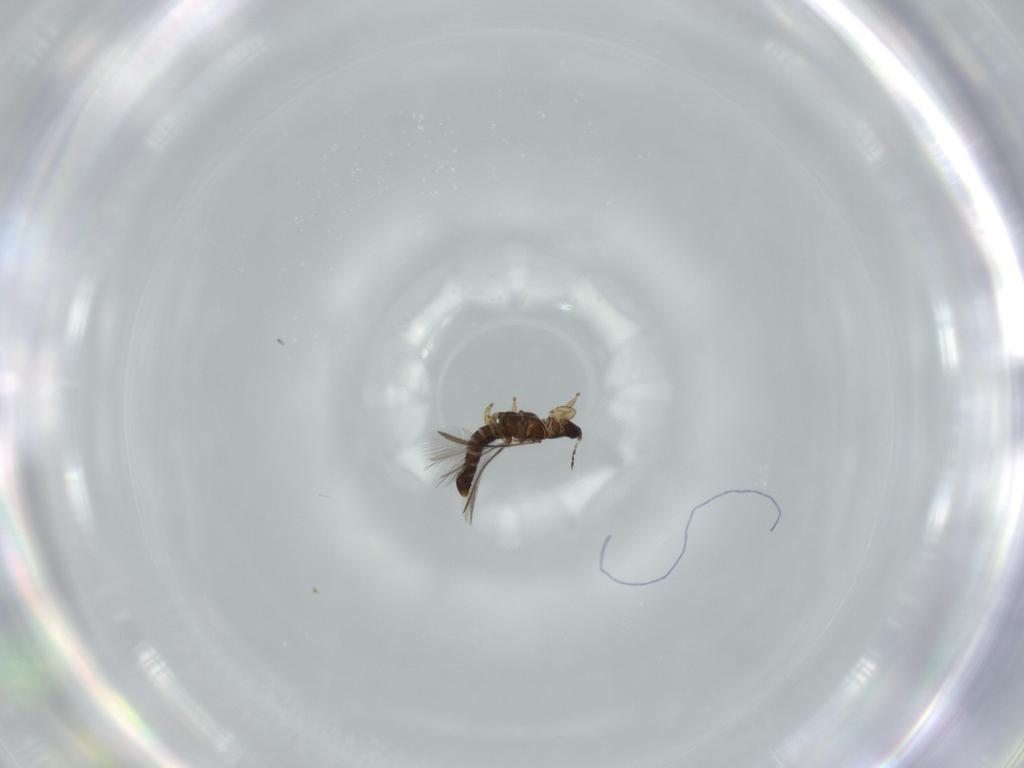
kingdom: Animalia
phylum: Arthropoda
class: Insecta
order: Thysanoptera
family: Thripidae
